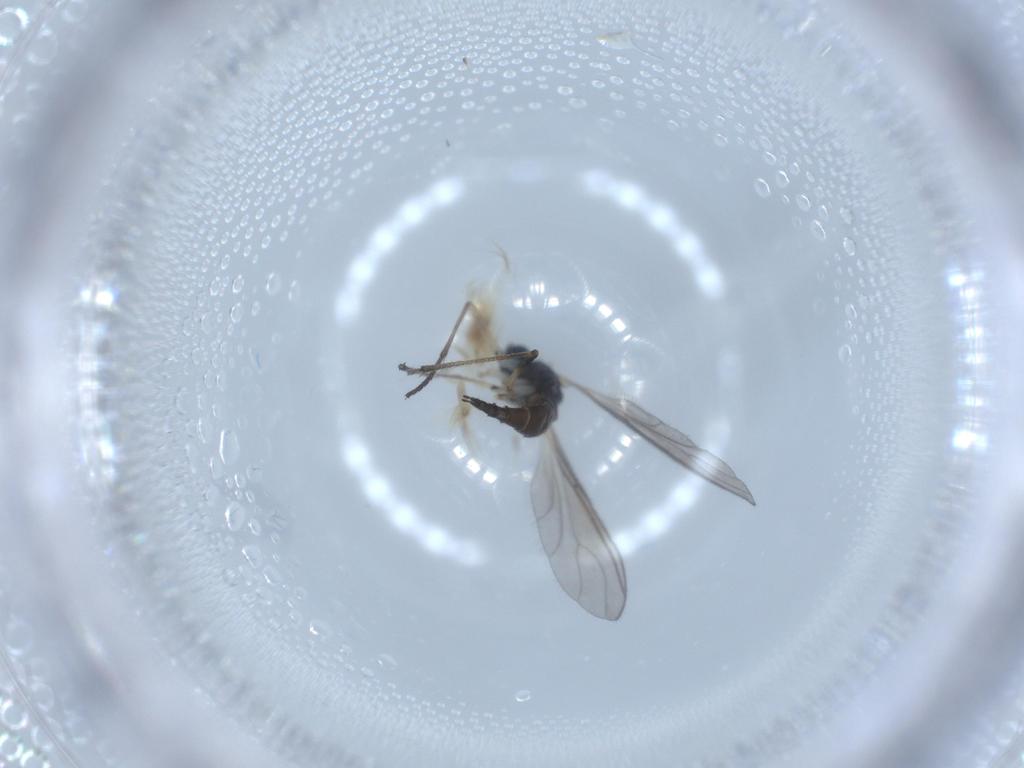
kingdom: Animalia
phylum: Arthropoda
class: Insecta
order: Diptera
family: Sciaridae
